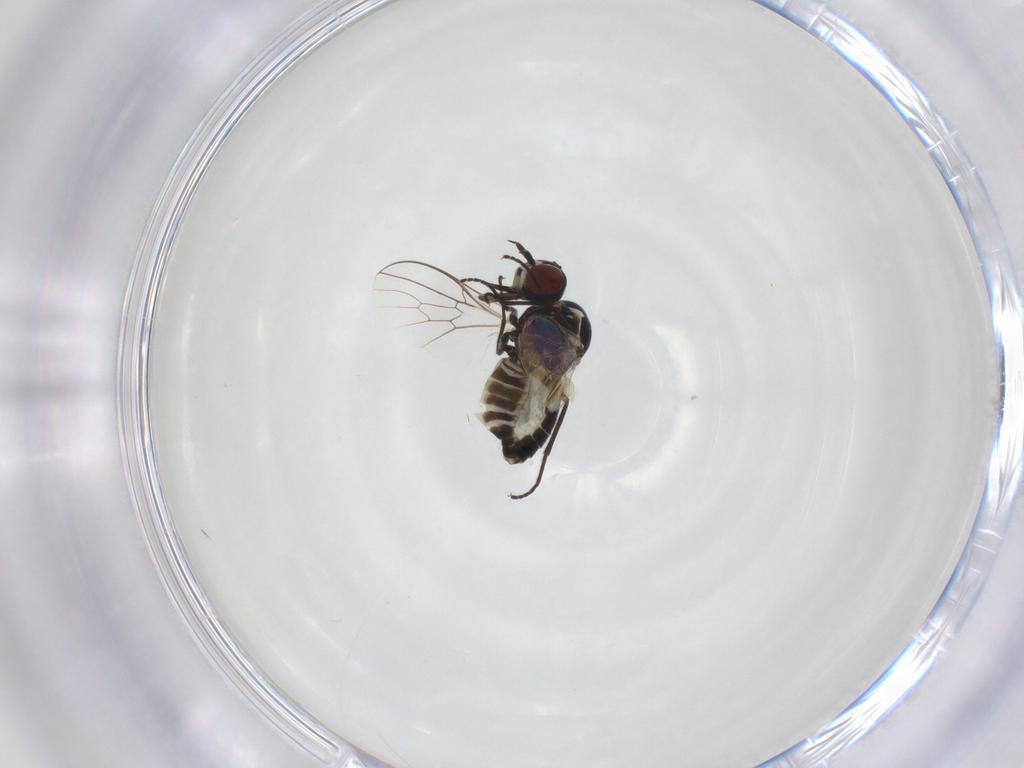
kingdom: Animalia
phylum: Arthropoda
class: Insecta
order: Diptera
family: Bombyliidae
